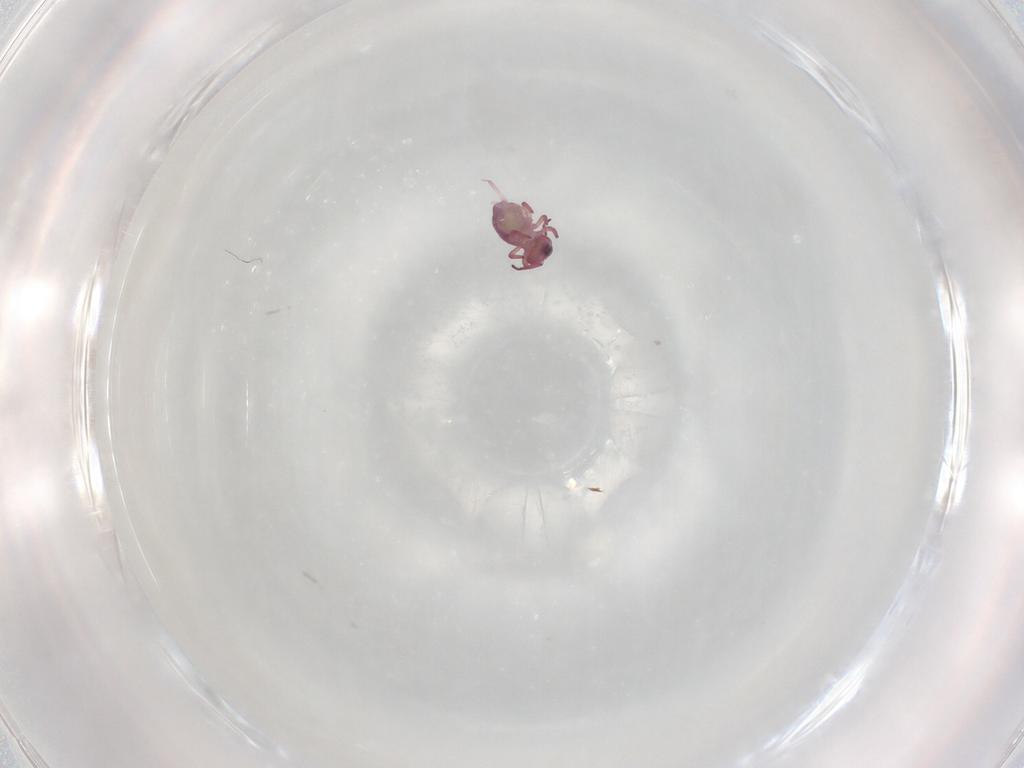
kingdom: Animalia
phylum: Arthropoda
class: Collembola
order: Symphypleona
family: Sminthurididae
